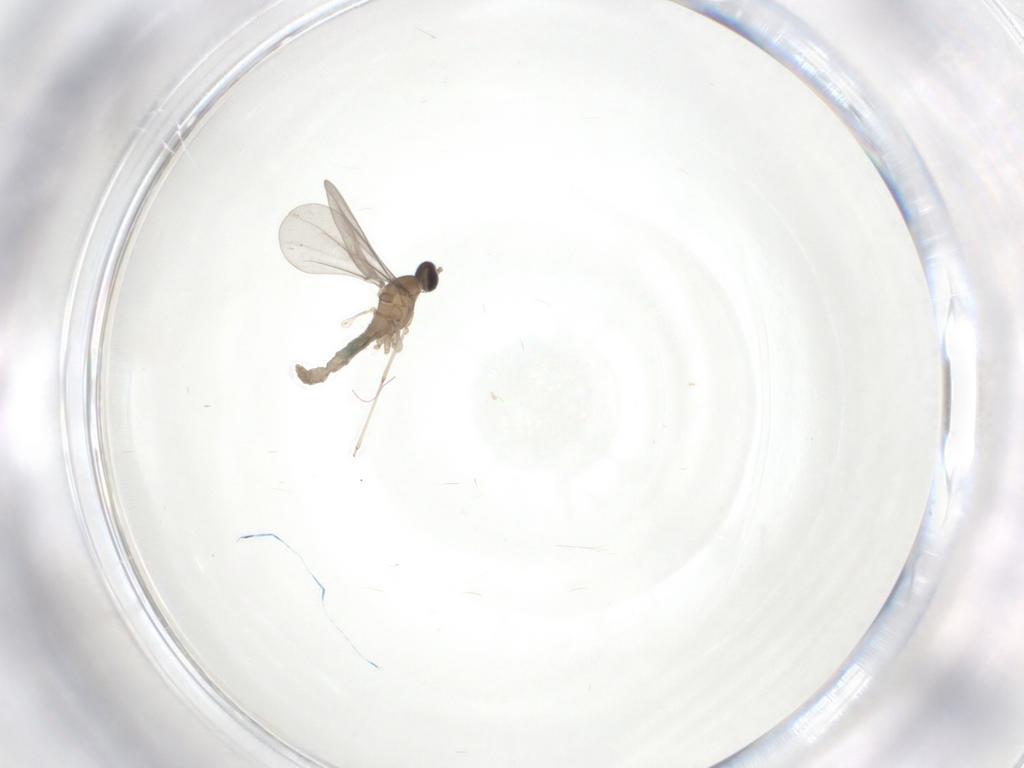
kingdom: Animalia
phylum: Arthropoda
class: Insecta
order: Diptera
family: Cecidomyiidae
